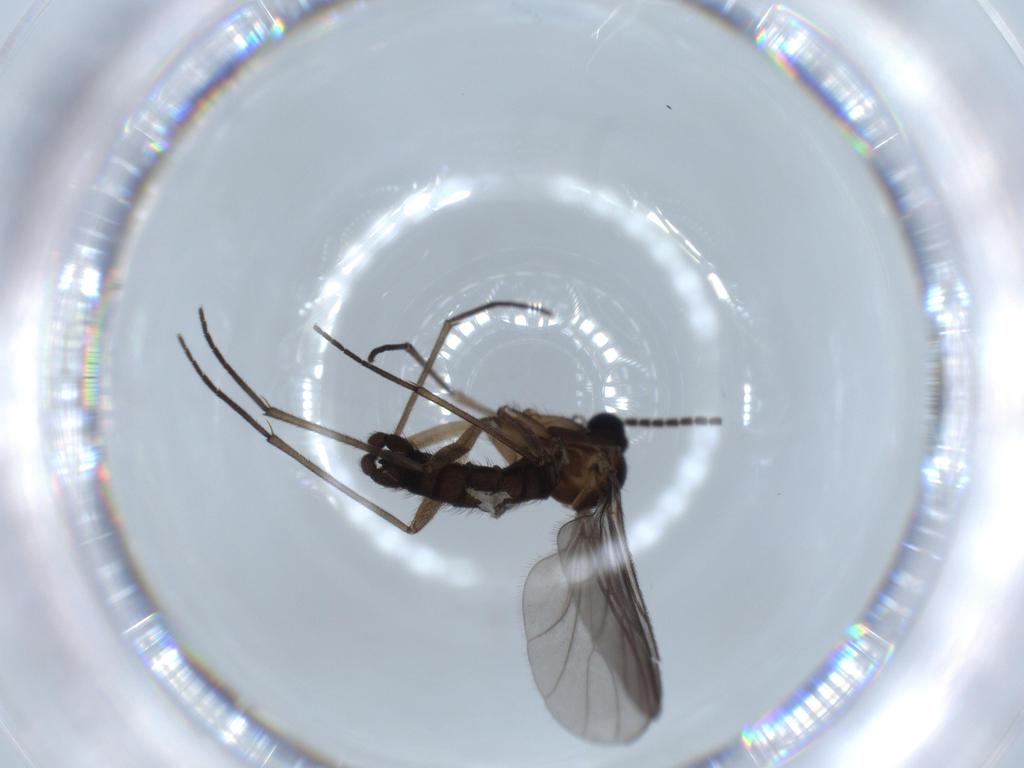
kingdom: Animalia
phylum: Arthropoda
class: Insecta
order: Diptera
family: Sciaridae
